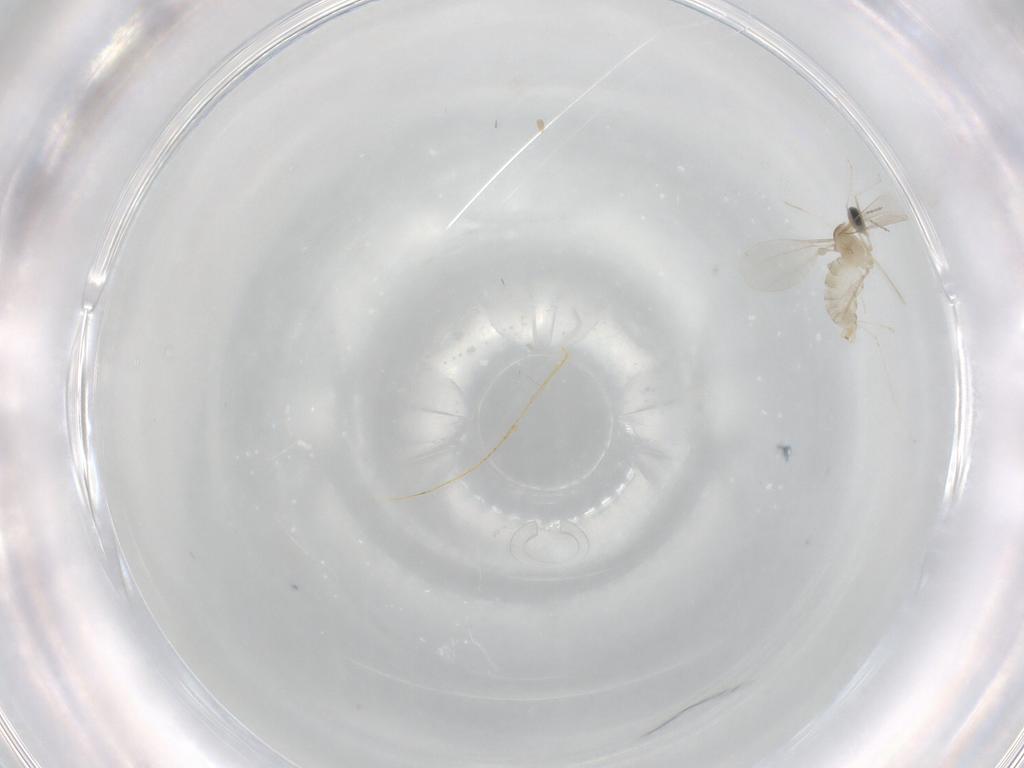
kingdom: Animalia
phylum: Arthropoda
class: Insecta
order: Diptera
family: Cecidomyiidae
